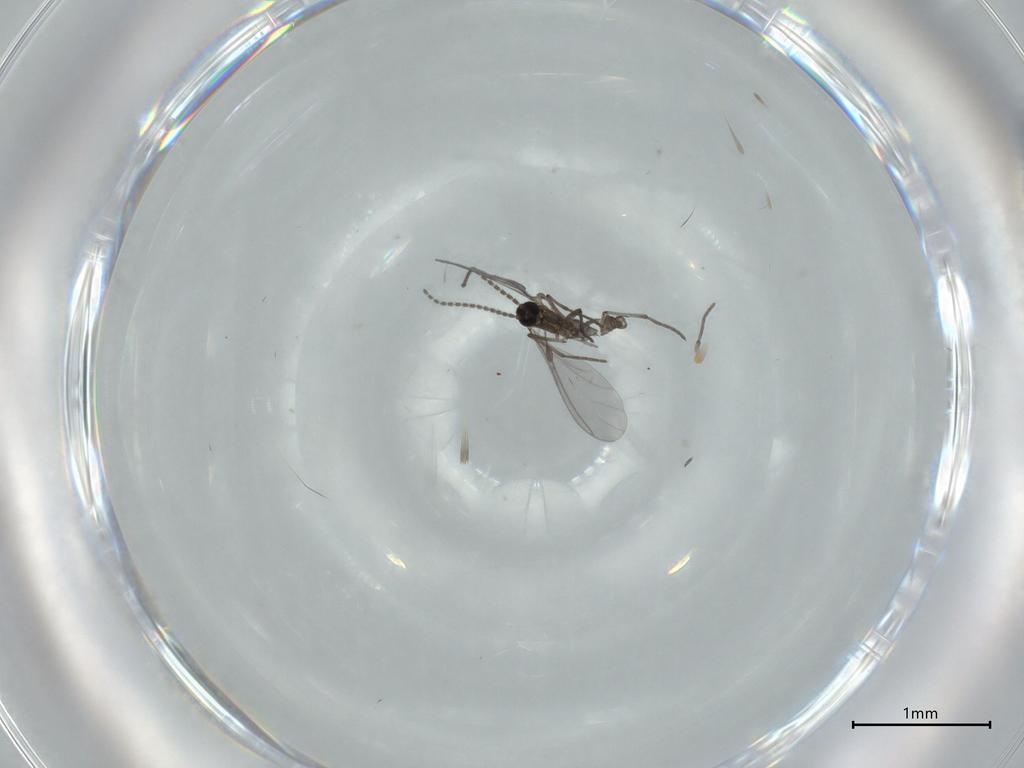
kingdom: Animalia
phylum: Arthropoda
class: Insecta
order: Diptera
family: Sciaridae
